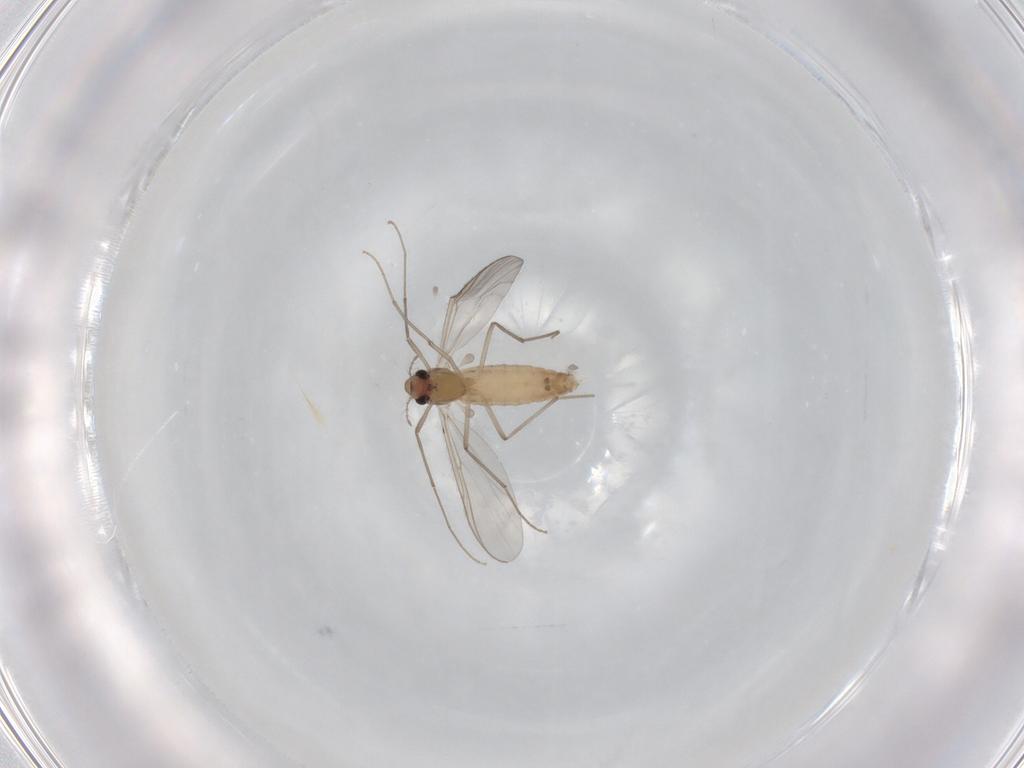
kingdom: Animalia
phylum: Arthropoda
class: Insecta
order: Diptera
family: Chironomidae
